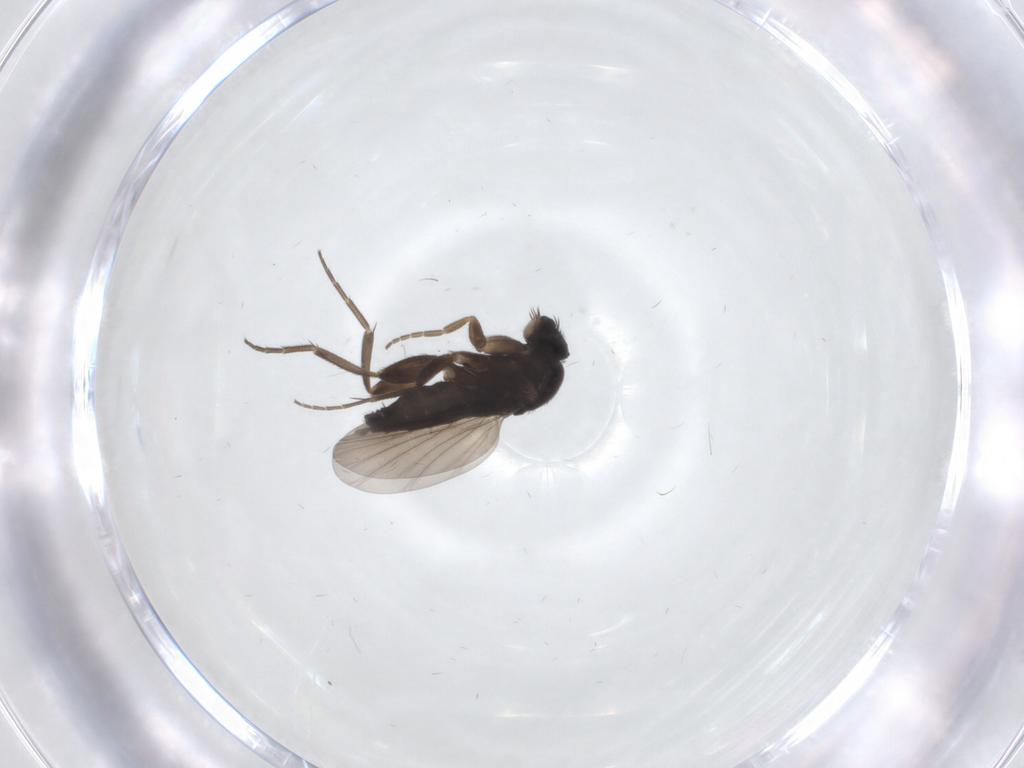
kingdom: Animalia
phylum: Arthropoda
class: Insecta
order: Diptera
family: Phoridae
